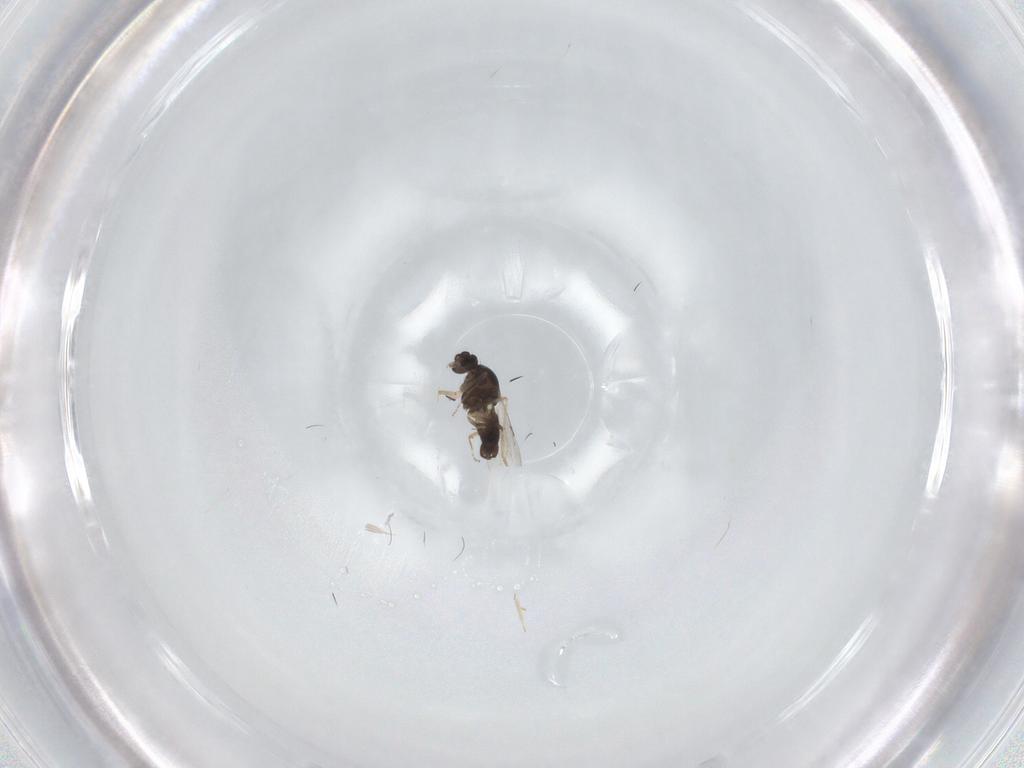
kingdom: Animalia
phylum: Arthropoda
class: Insecta
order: Diptera
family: Ceratopogonidae
